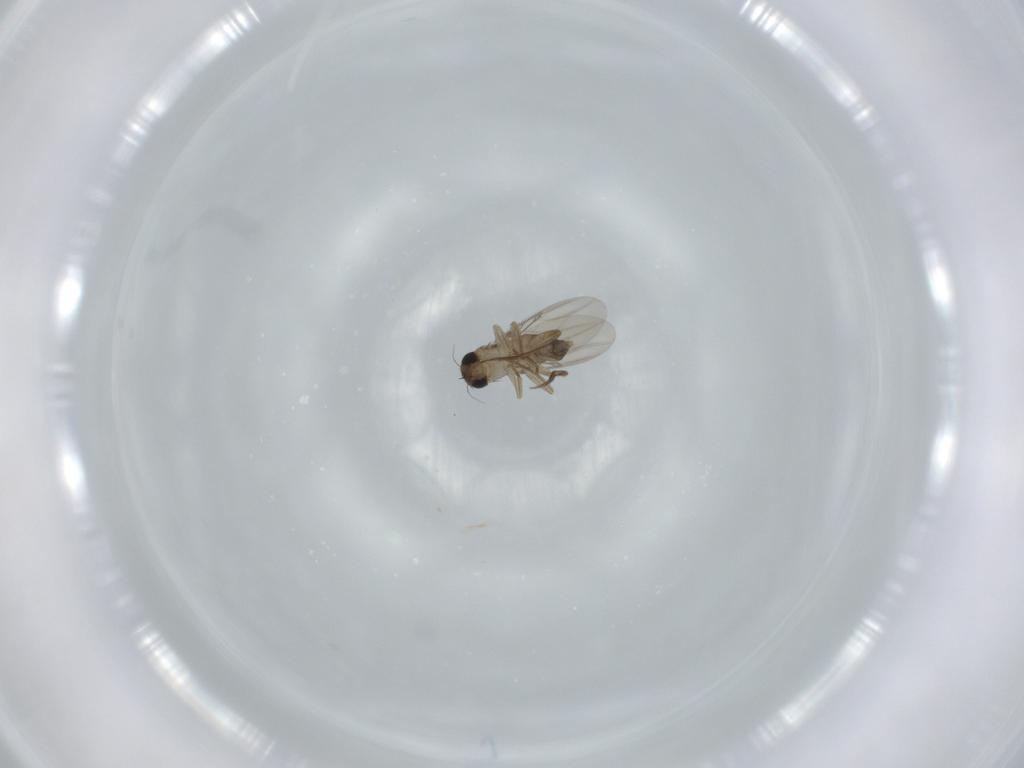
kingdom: Animalia
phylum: Arthropoda
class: Insecta
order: Diptera
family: Phoridae
